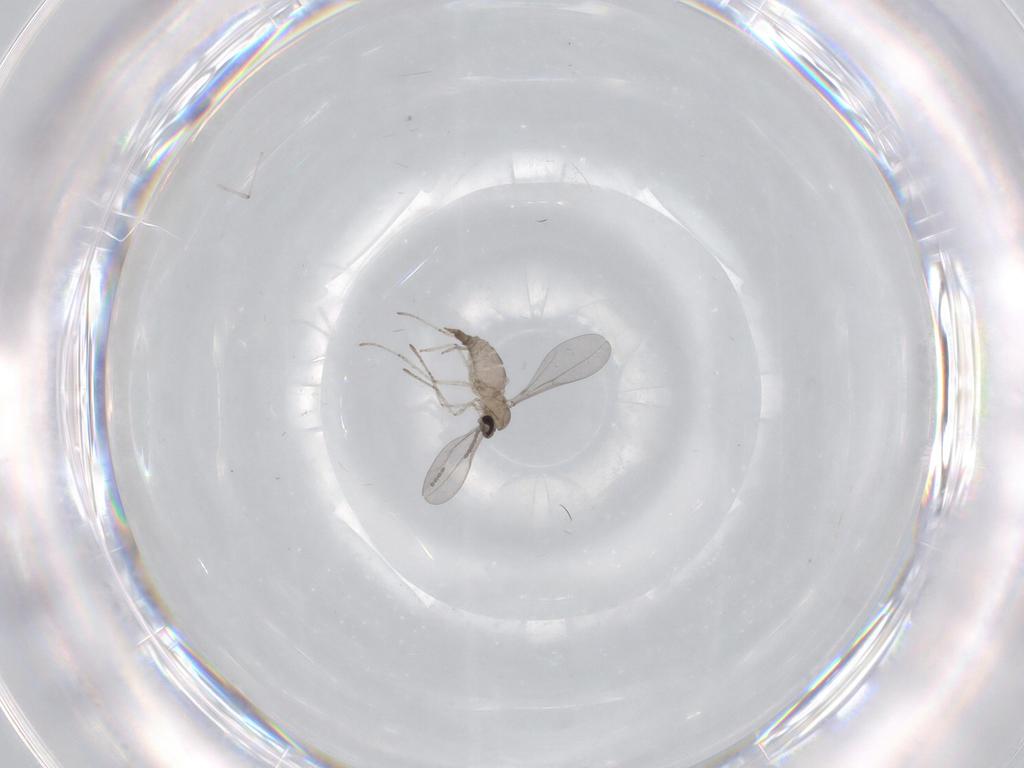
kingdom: Animalia
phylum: Arthropoda
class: Insecta
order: Diptera
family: Cecidomyiidae
